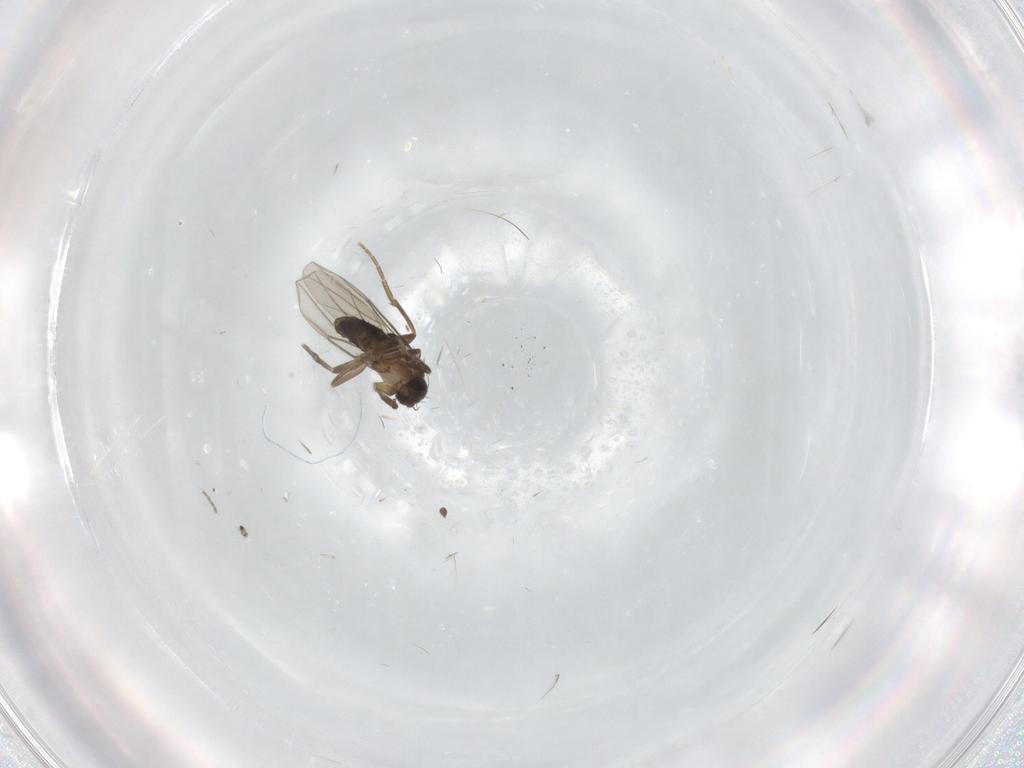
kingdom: Animalia
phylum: Arthropoda
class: Insecta
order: Diptera
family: Phoridae
